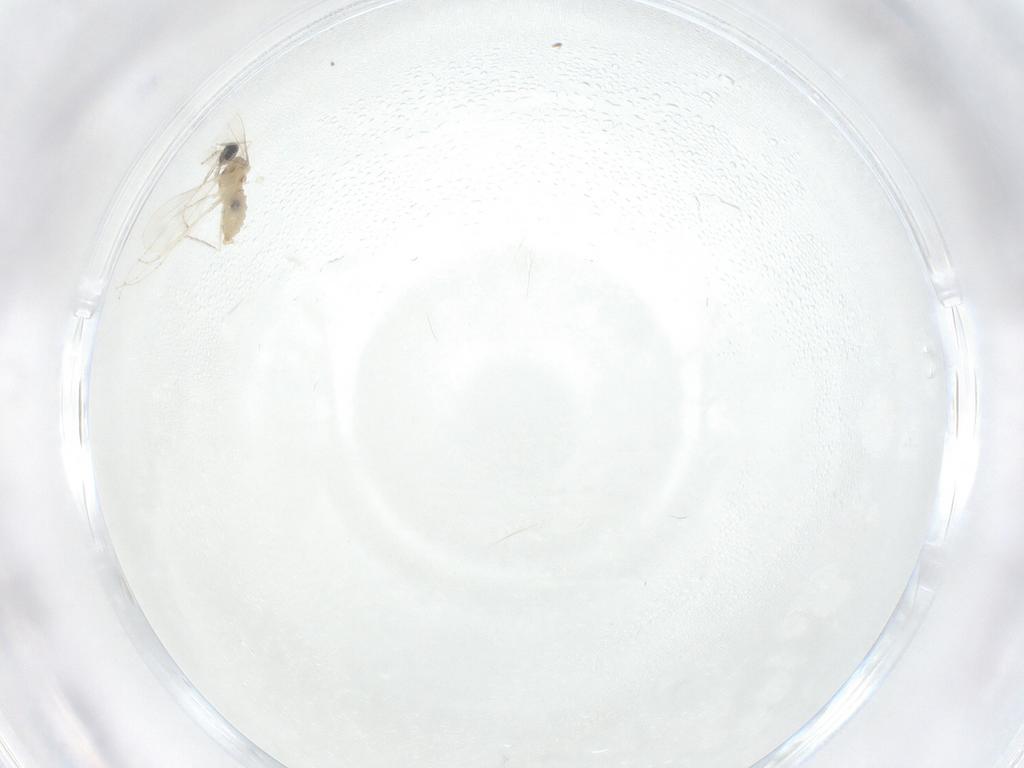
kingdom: Animalia
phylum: Arthropoda
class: Insecta
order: Diptera
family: Cecidomyiidae
